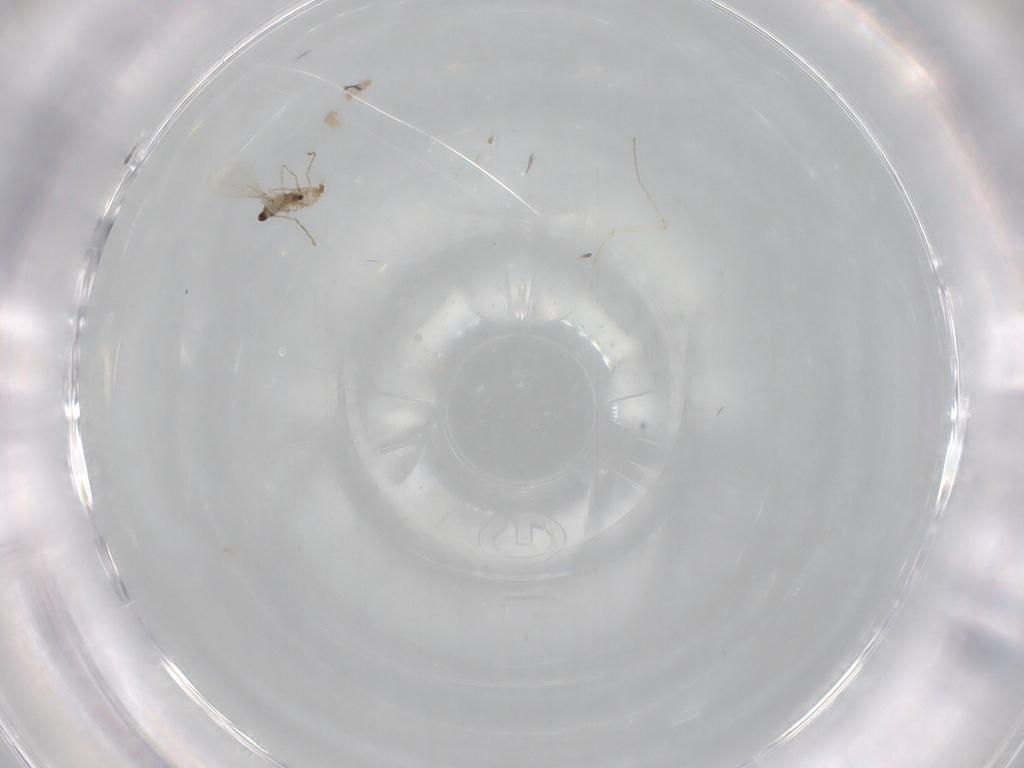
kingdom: Animalia
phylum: Arthropoda
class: Insecta
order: Diptera
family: Cecidomyiidae
